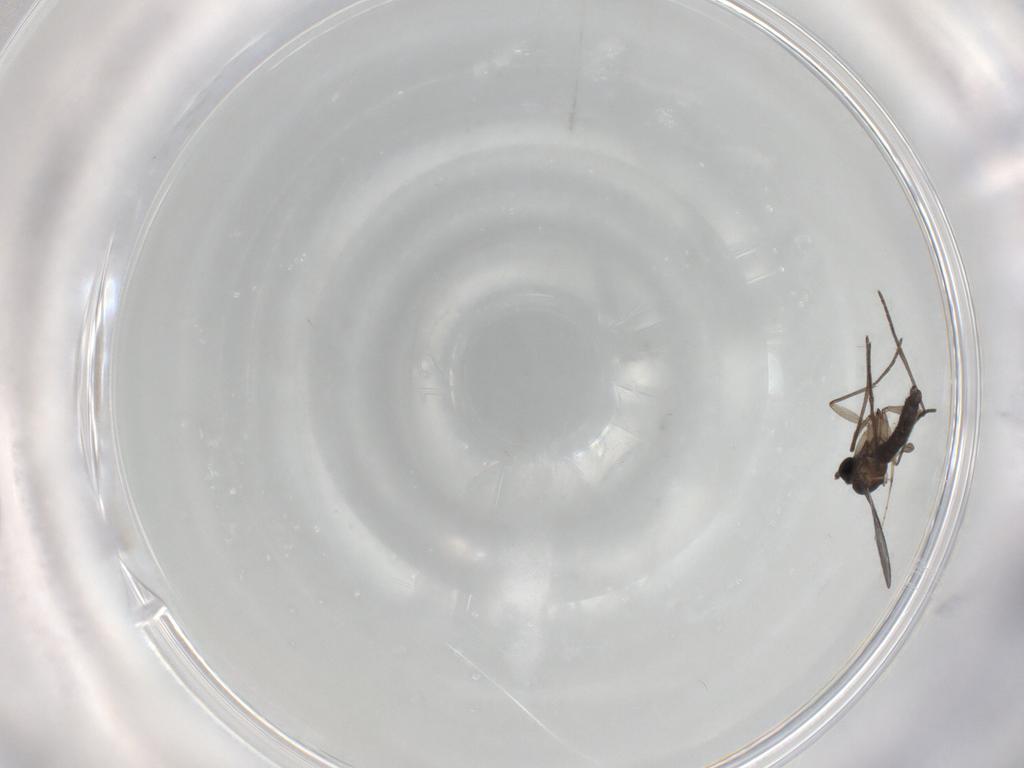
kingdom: Animalia
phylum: Arthropoda
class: Insecta
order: Diptera
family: Ceratopogonidae
